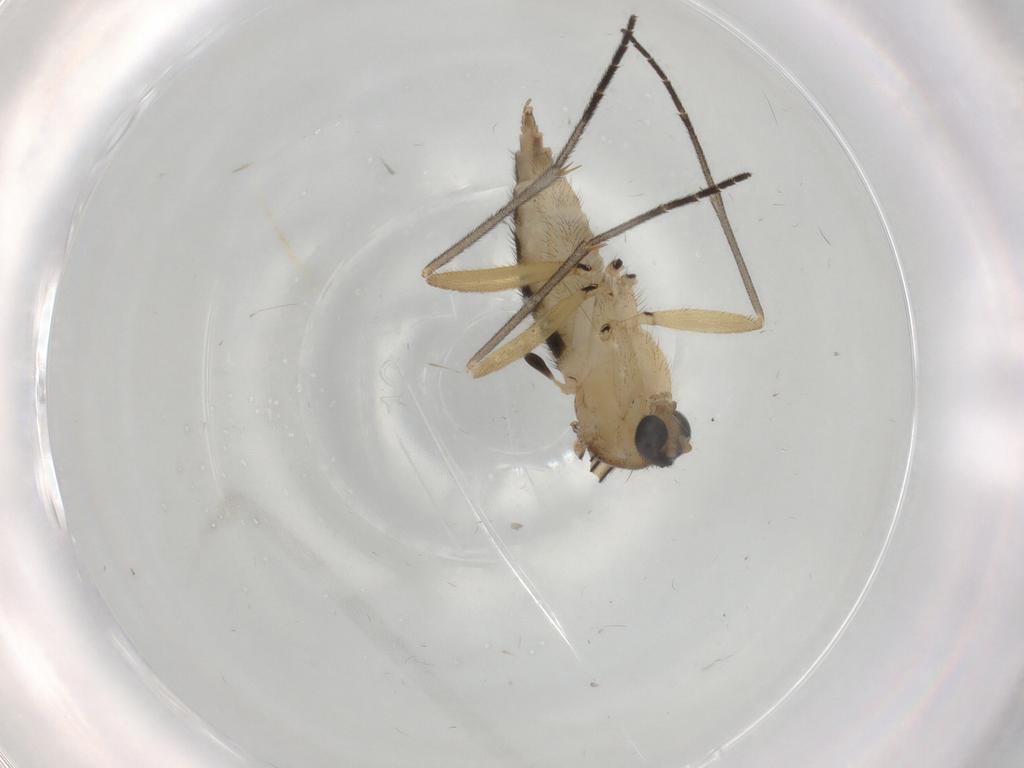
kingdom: Animalia
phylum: Arthropoda
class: Insecta
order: Diptera
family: Sciaridae
